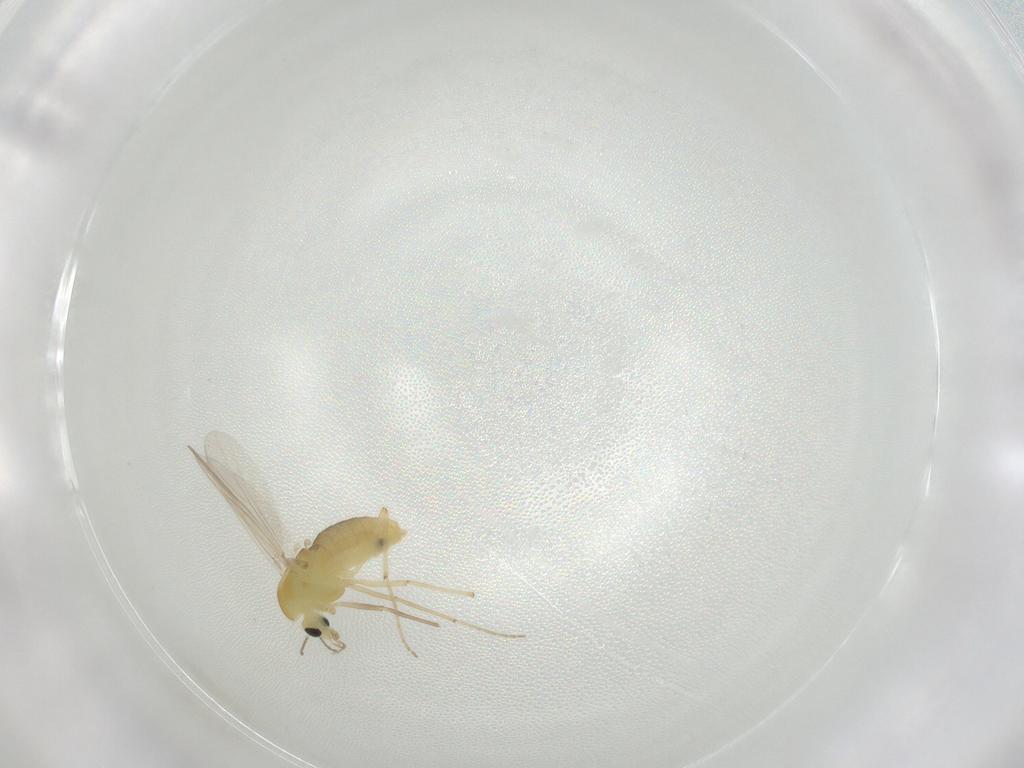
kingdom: Animalia
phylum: Arthropoda
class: Insecta
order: Diptera
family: Chironomidae
